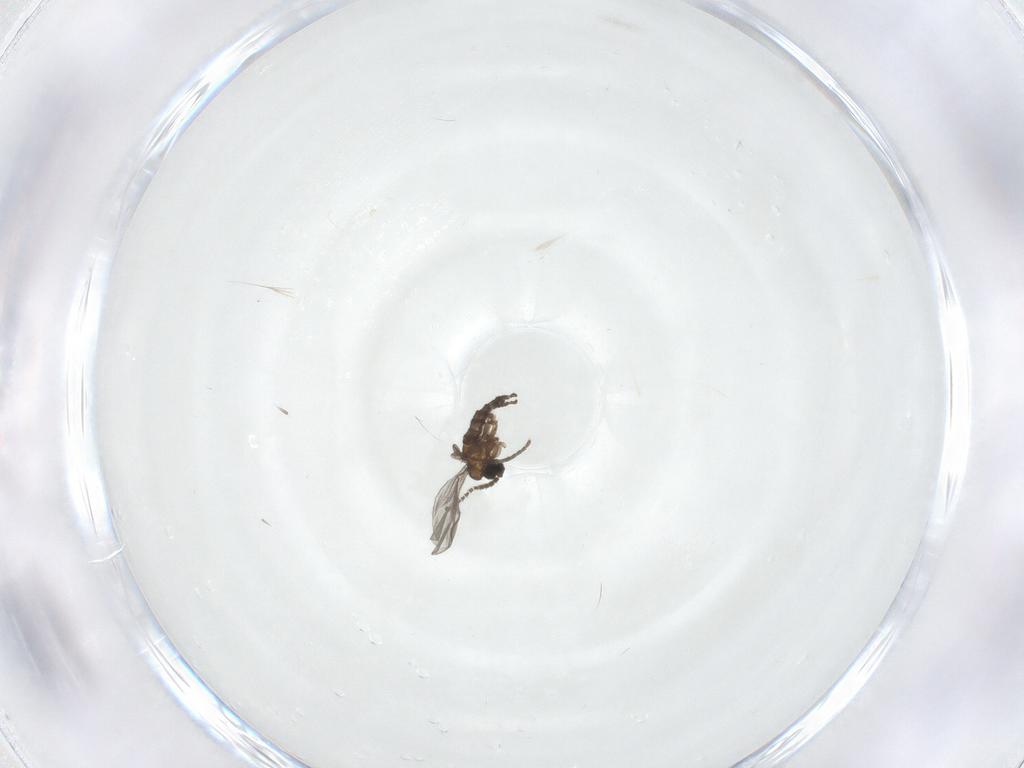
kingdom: Animalia
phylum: Arthropoda
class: Insecta
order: Diptera
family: Sciaridae
